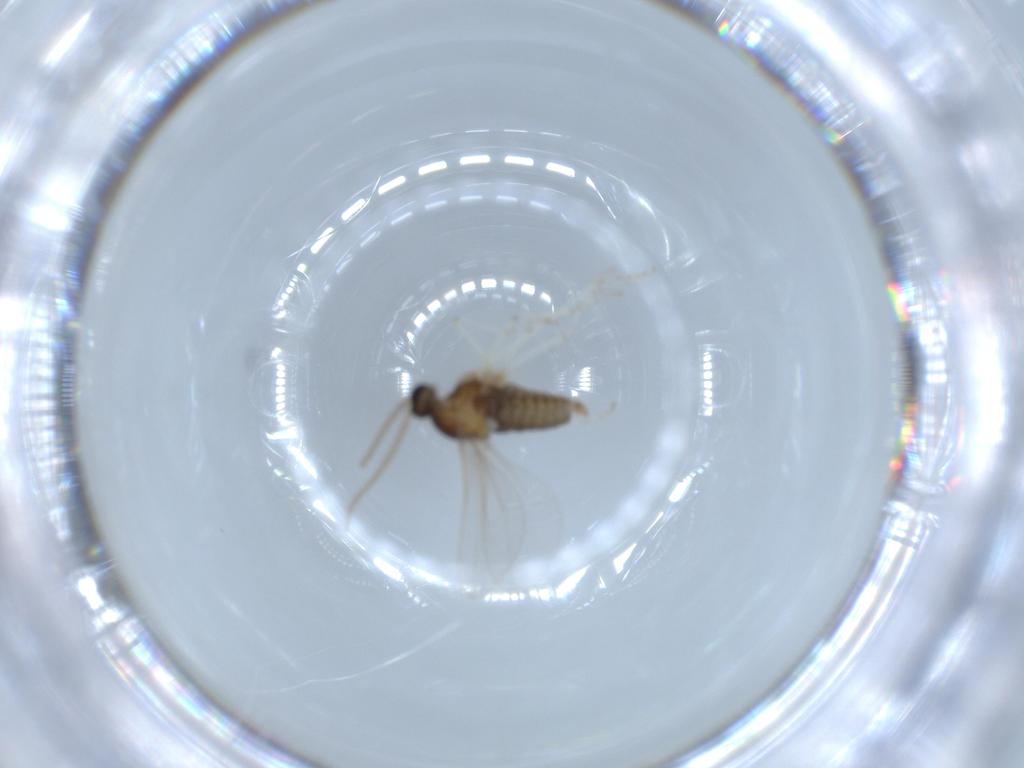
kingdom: Animalia
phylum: Arthropoda
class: Insecta
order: Diptera
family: Cecidomyiidae
